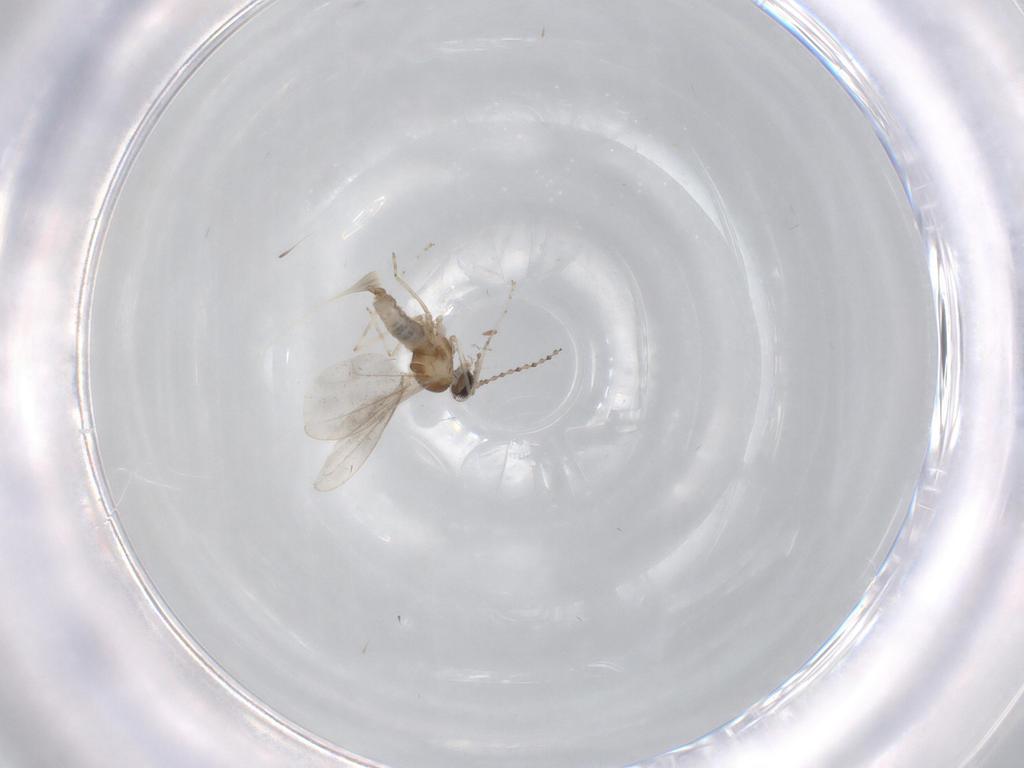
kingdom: Animalia
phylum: Arthropoda
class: Insecta
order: Diptera
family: Cecidomyiidae
